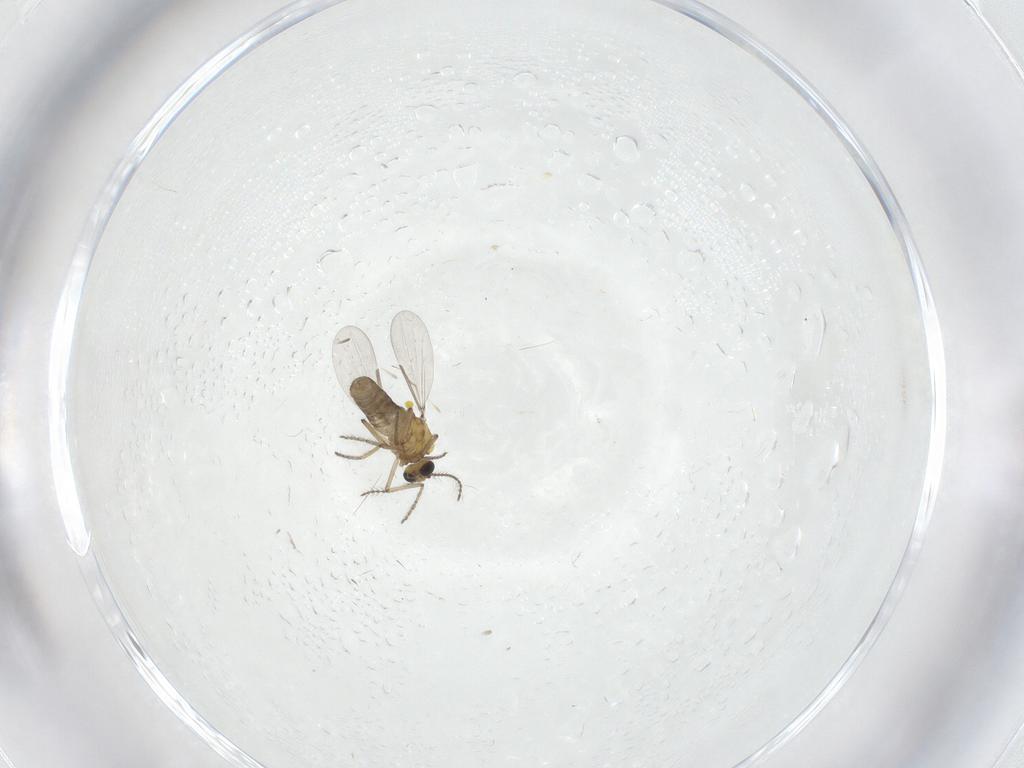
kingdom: Animalia
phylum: Arthropoda
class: Insecta
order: Diptera
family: Ceratopogonidae
